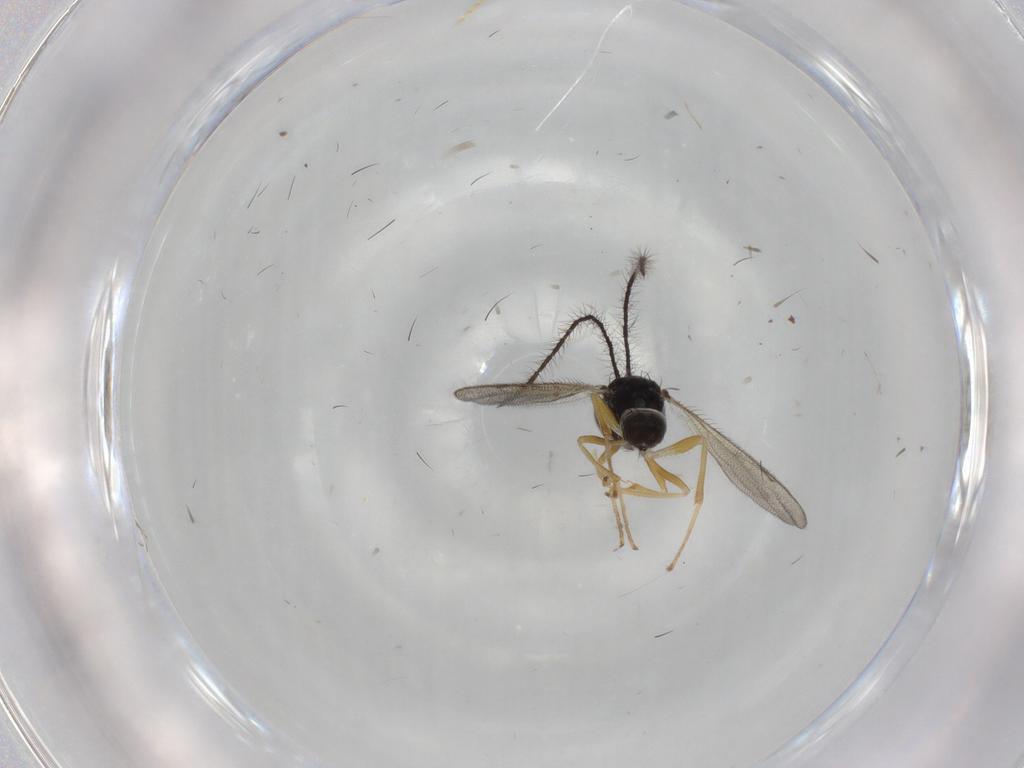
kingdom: Animalia
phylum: Arthropoda
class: Insecta
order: Hymenoptera
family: Diparidae
